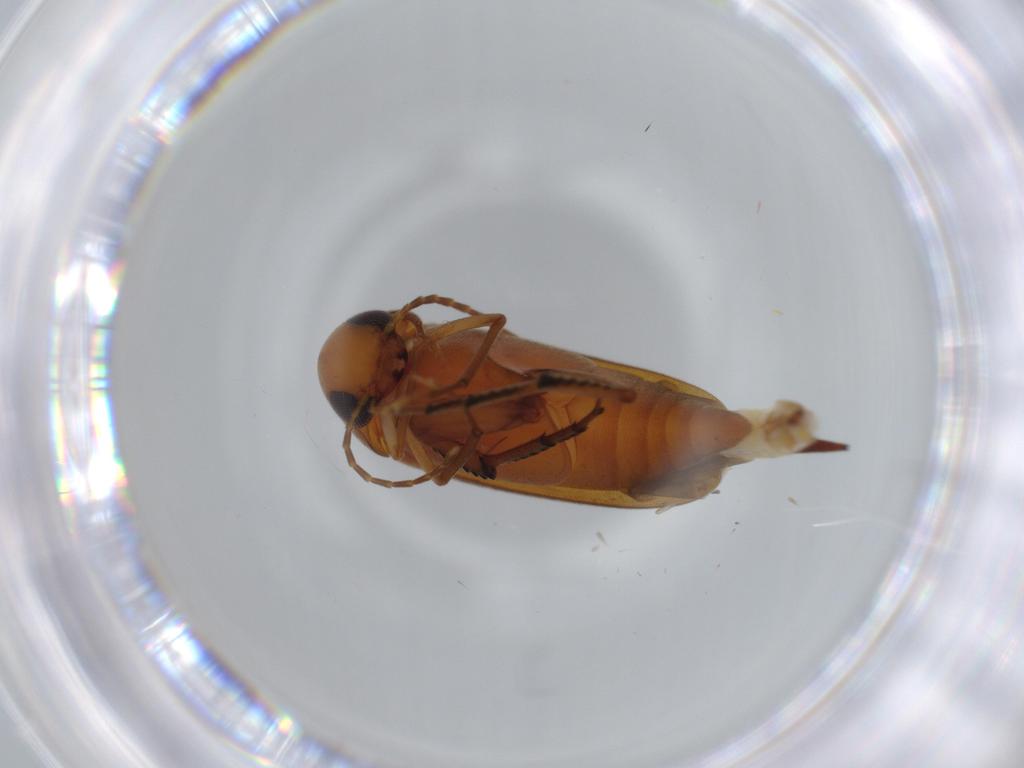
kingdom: Animalia
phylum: Arthropoda
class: Insecta
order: Coleoptera
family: Mordellidae
